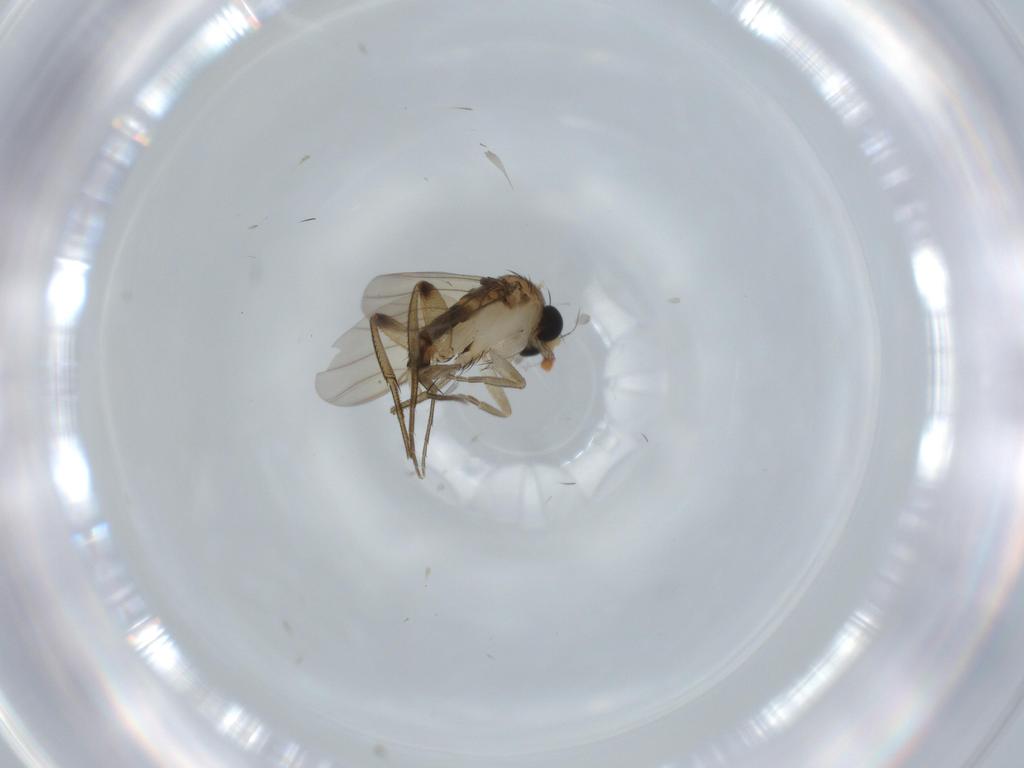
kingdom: Animalia
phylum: Arthropoda
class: Insecta
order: Diptera
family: Phoridae
